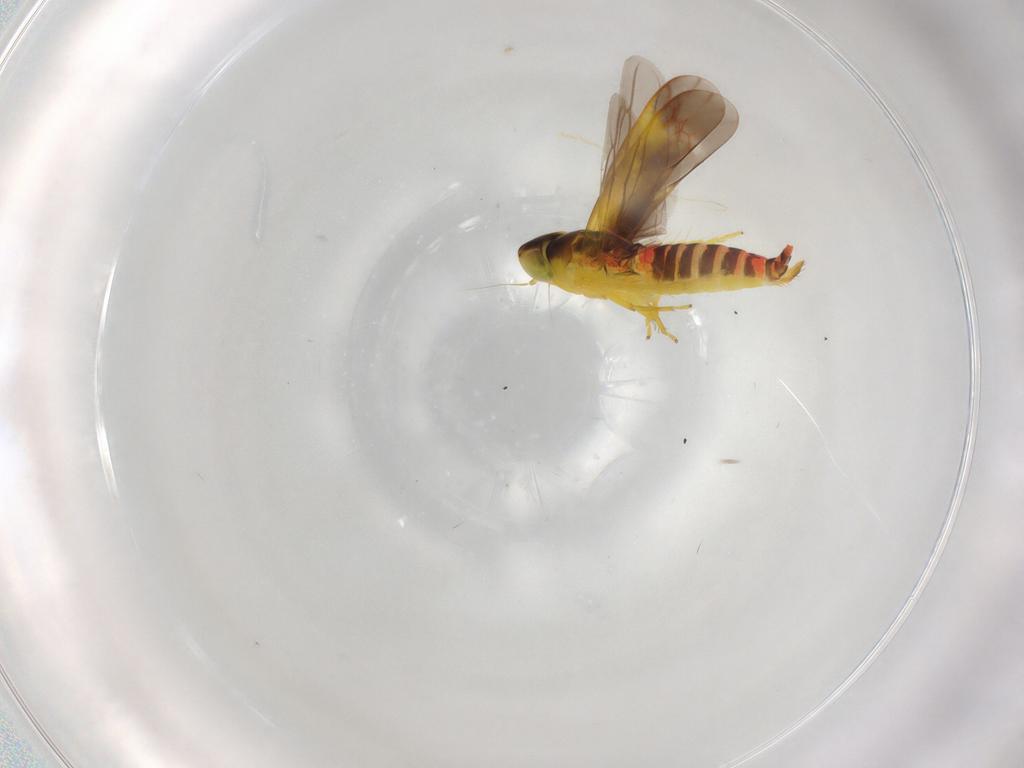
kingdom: Animalia
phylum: Arthropoda
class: Insecta
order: Hemiptera
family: Cicadellidae
